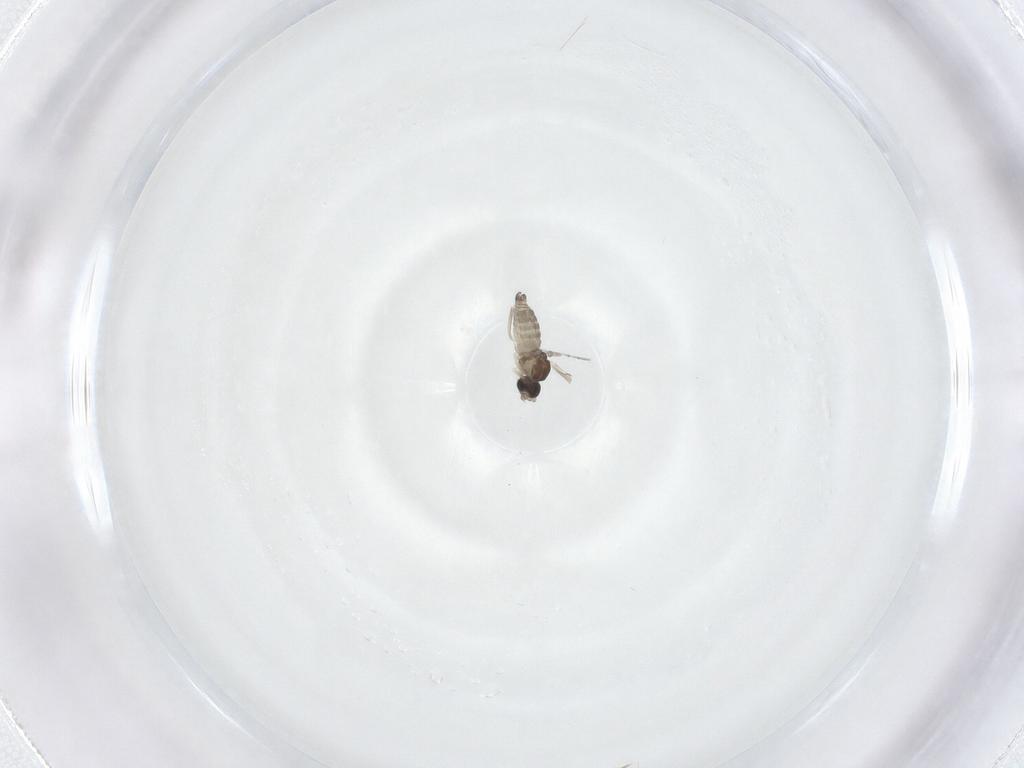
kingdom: Animalia
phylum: Arthropoda
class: Insecta
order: Diptera
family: Cecidomyiidae
